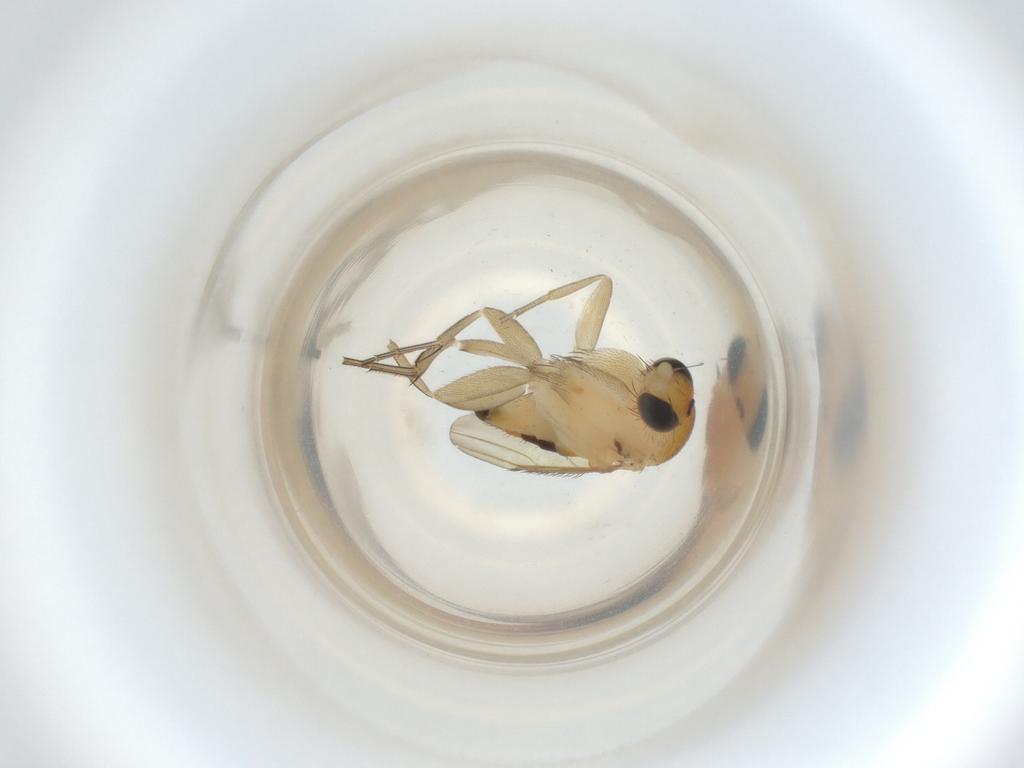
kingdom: Animalia
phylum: Arthropoda
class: Insecta
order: Diptera
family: Phoridae
